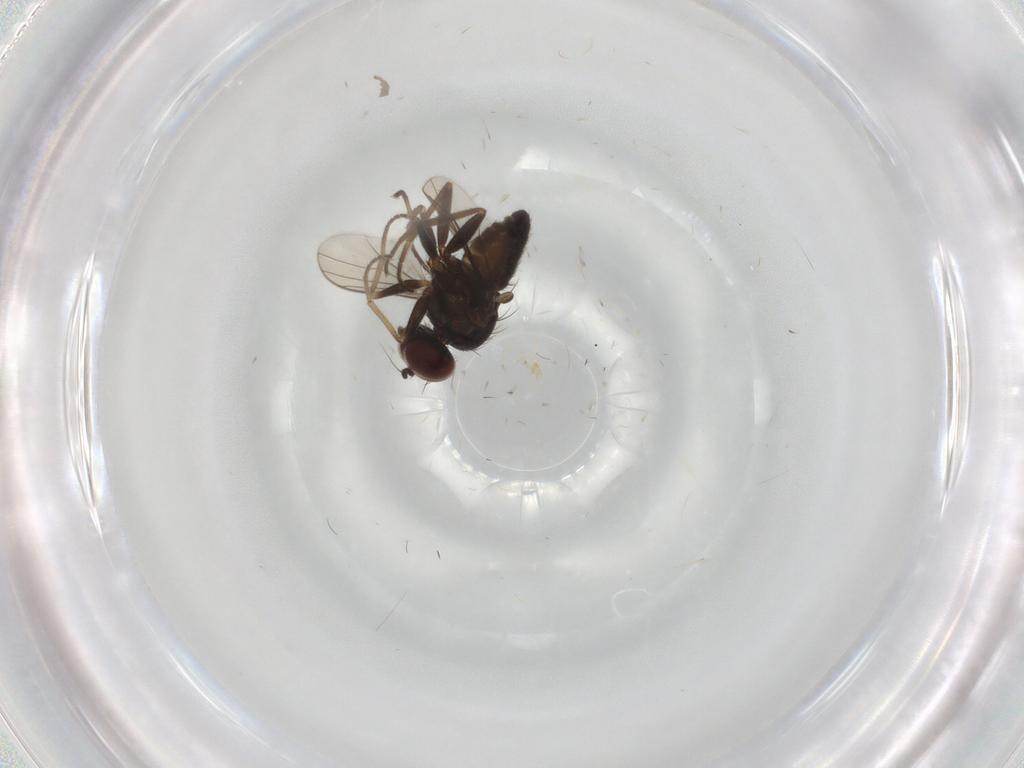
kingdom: Animalia
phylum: Arthropoda
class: Insecta
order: Diptera
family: Dolichopodidae
